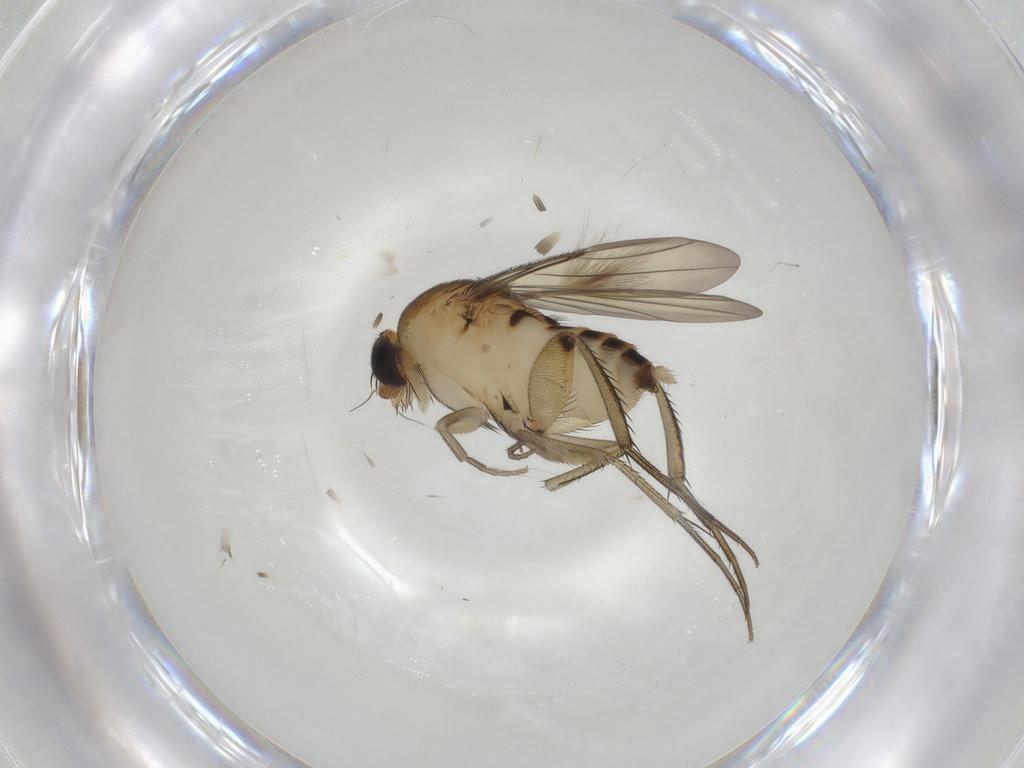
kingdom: Animalia
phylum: Arthropoda
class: Insecta
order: Diptera
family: Phoridae
